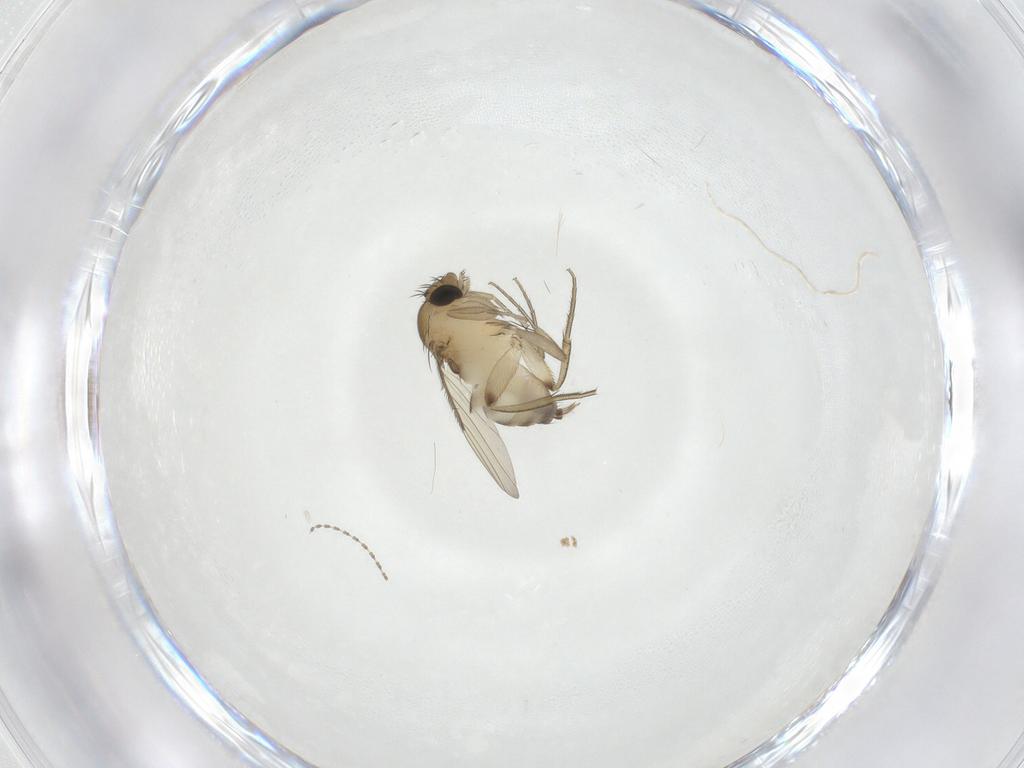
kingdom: Animalia
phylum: Arthropoda
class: Insecta
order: Diptera
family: Phoridae
